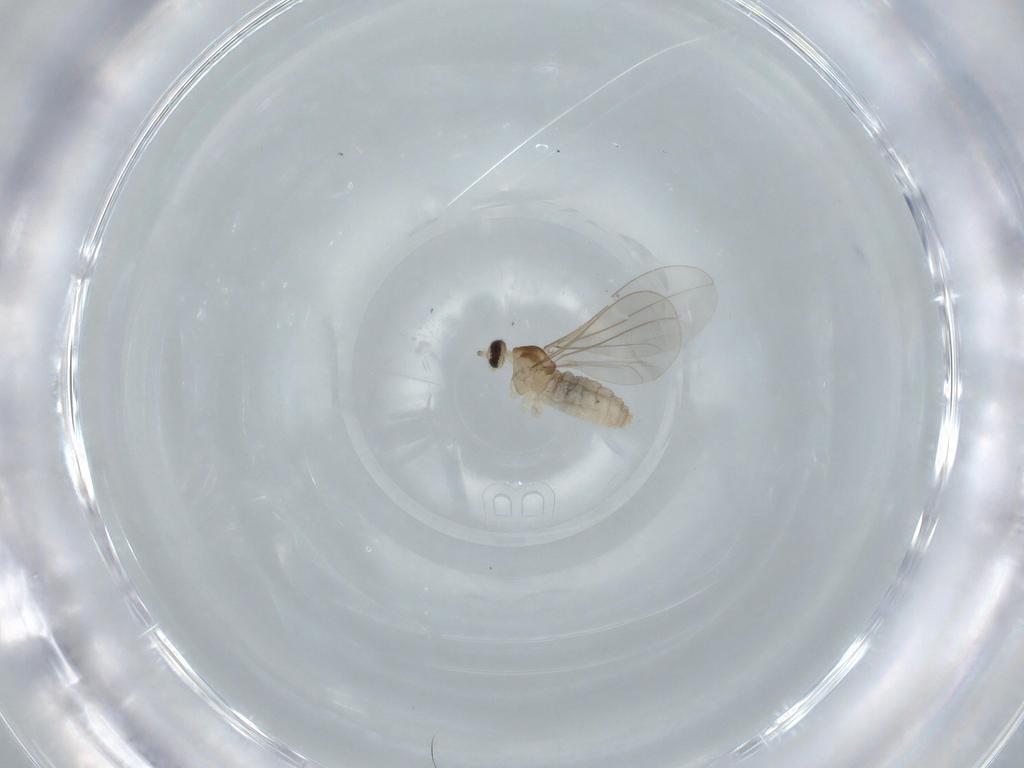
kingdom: Animalia
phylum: Arthropoda
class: Insecta
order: Diptera
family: Cecidomyiidae
